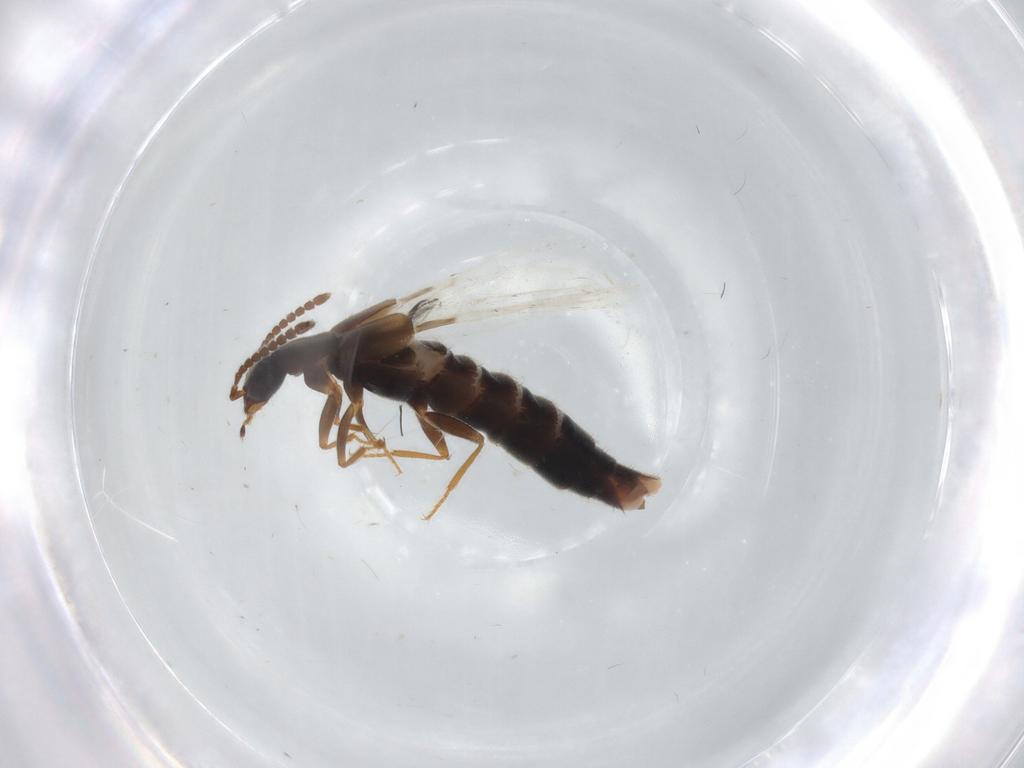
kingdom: Animalia
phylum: Arthropoda
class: Insecta
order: Coleoptera
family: Staphylinidae
